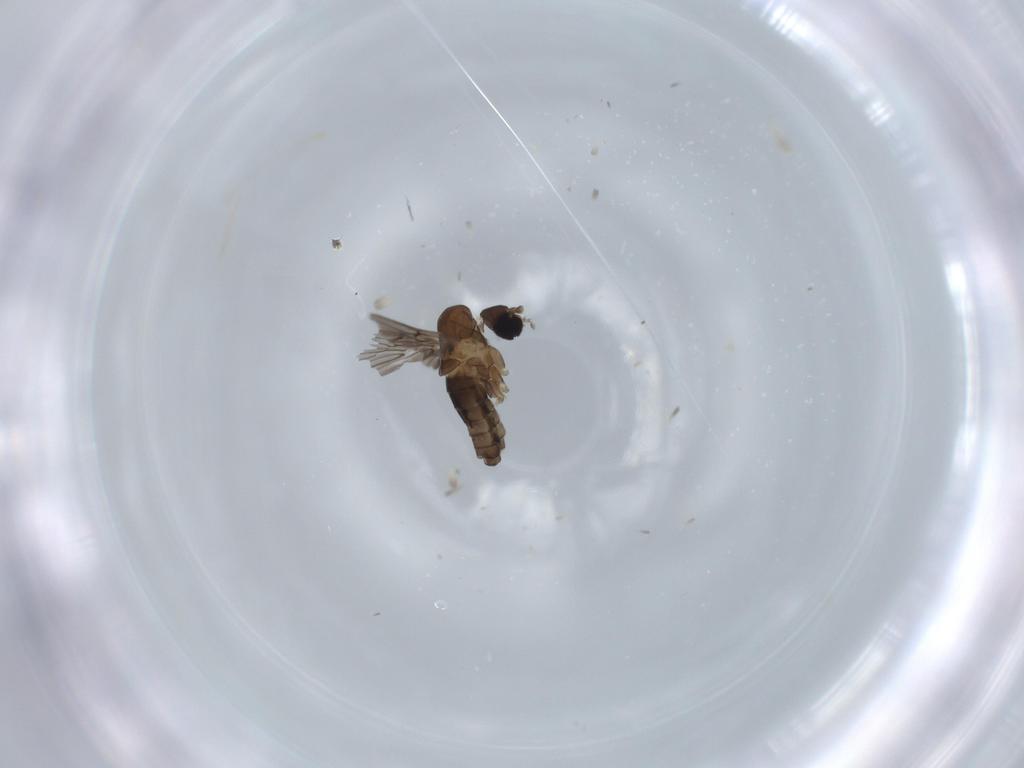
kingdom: Animalia
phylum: Arthropoda
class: Insecta
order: Diptera
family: Psychodidae
